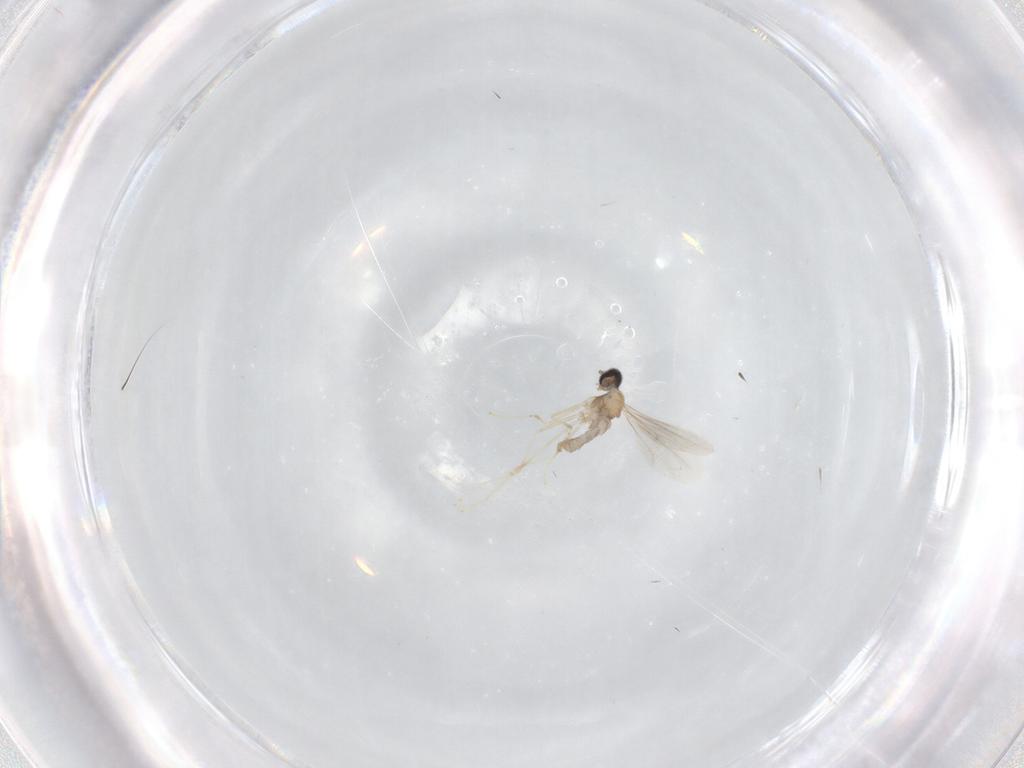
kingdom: Animalia
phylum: Arthropoda
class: Insecta
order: Diptera
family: Cecidomyiidae
